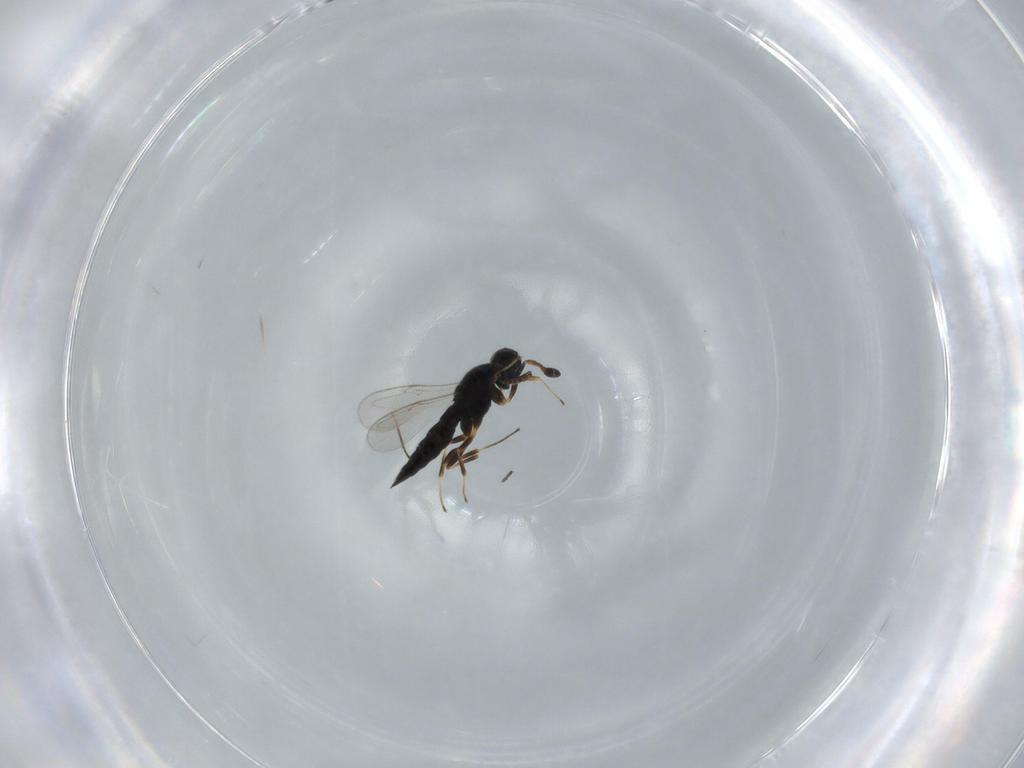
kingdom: Animalia
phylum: Arthropoda
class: Insecta
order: Hymenoptera
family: Scelionidae
